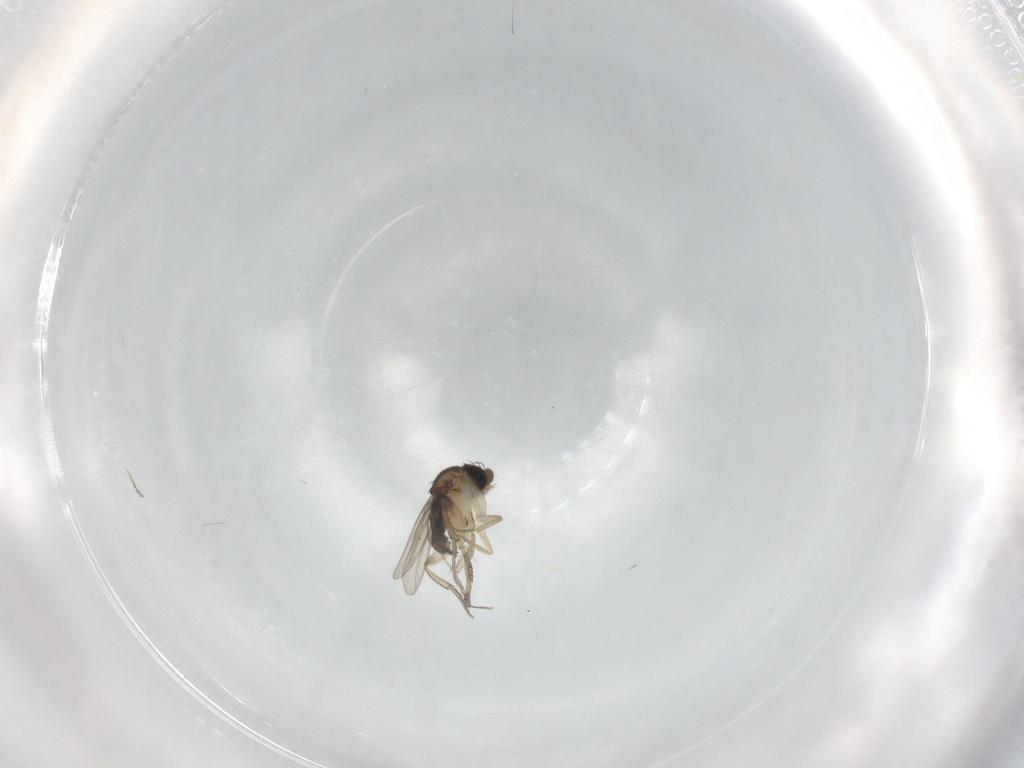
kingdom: Animalia
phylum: Arthropoda
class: Insecta
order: Diptera
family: Phoridae
